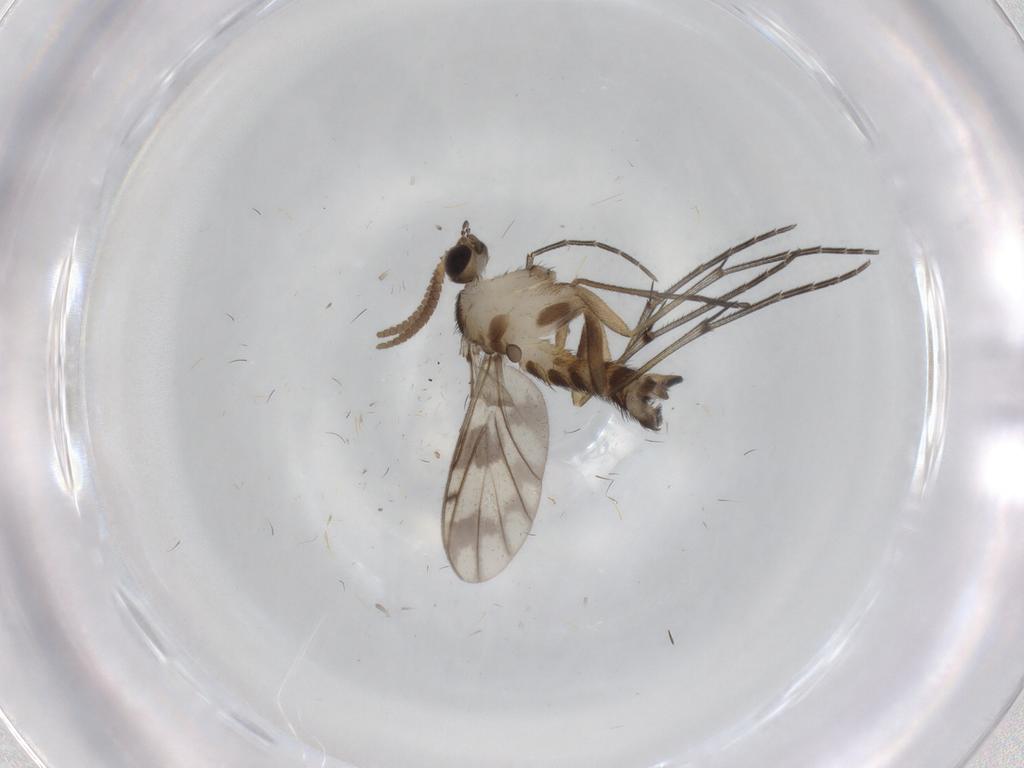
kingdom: Animalia
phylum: Arthropoda
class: Insecta
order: Diptera
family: Keroplatidae
